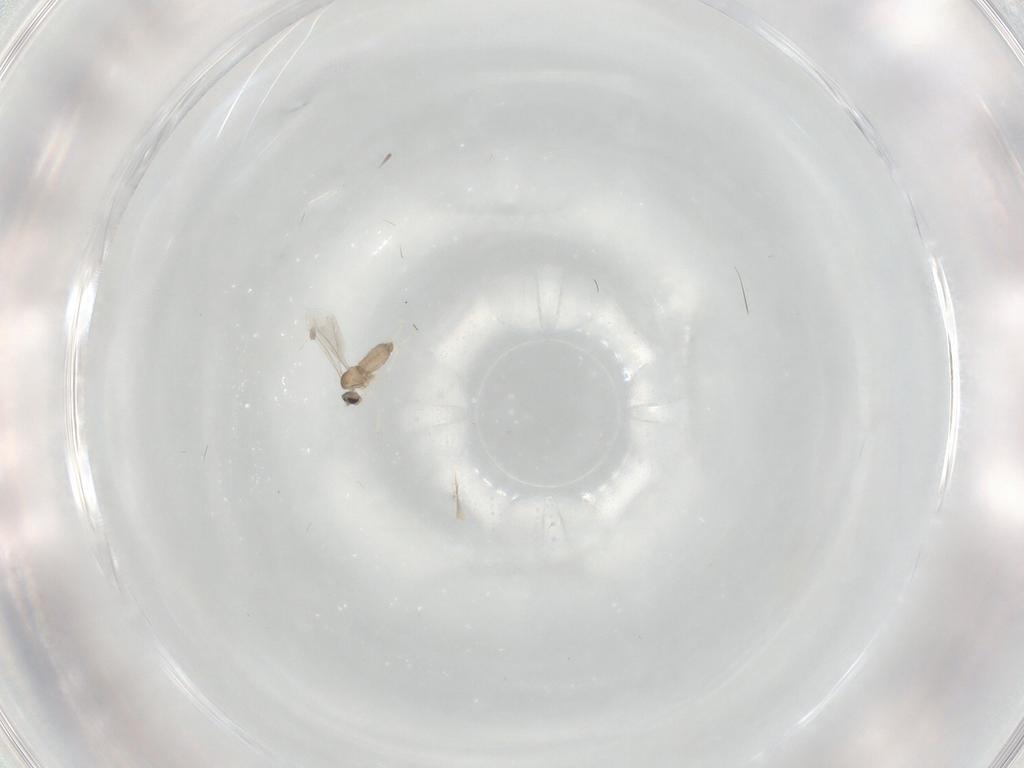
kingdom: Animalia
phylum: Arthropoda
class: Insecta
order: Diptera
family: Cecidomyiidae
